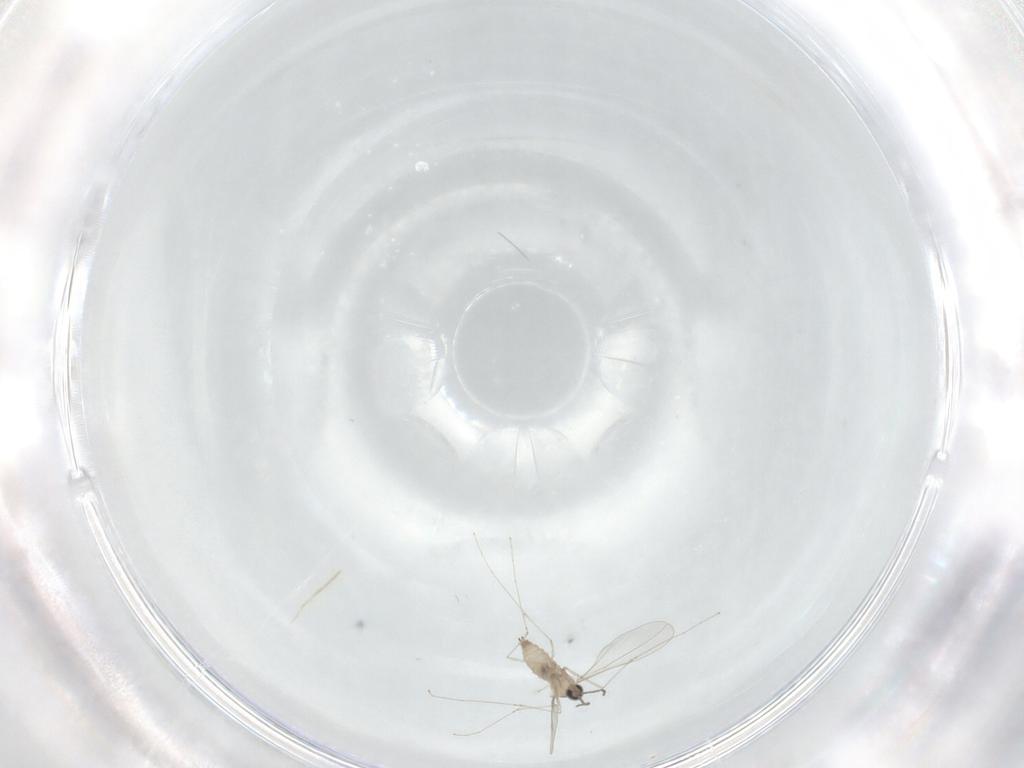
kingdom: Animalia
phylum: Arthropoda
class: Insecta
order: Diptera
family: Cecidomyiidae
